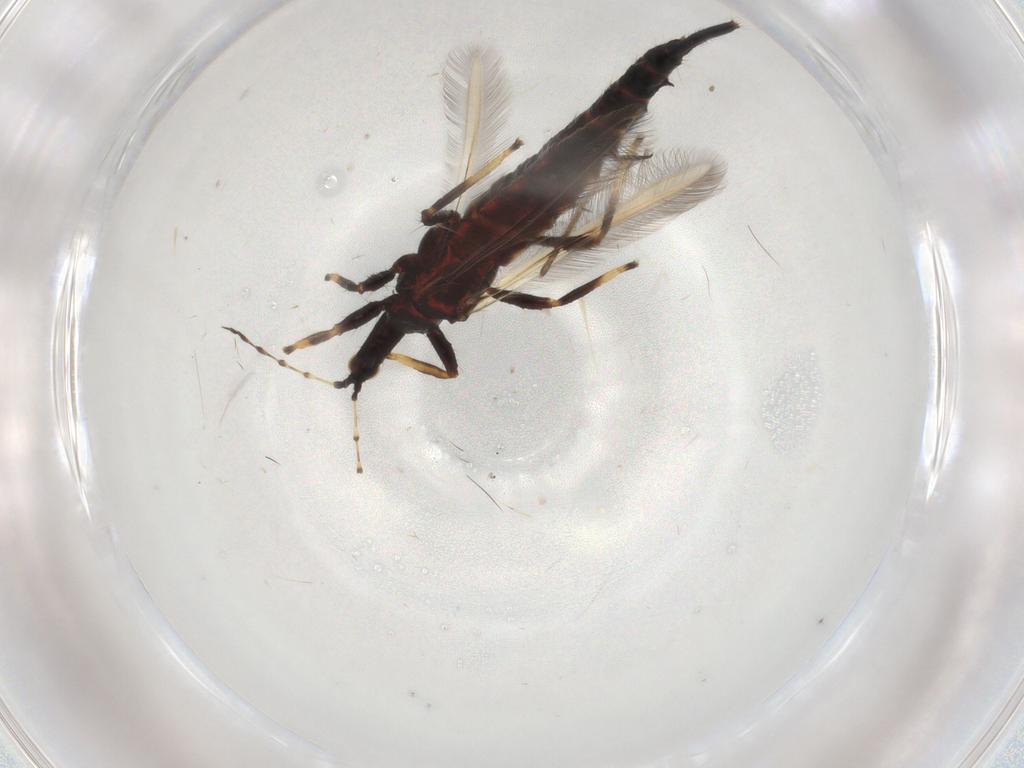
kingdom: Animalia
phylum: Arthropoda
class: Insecta
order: Thysanoptera
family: Phlaeothripidae
